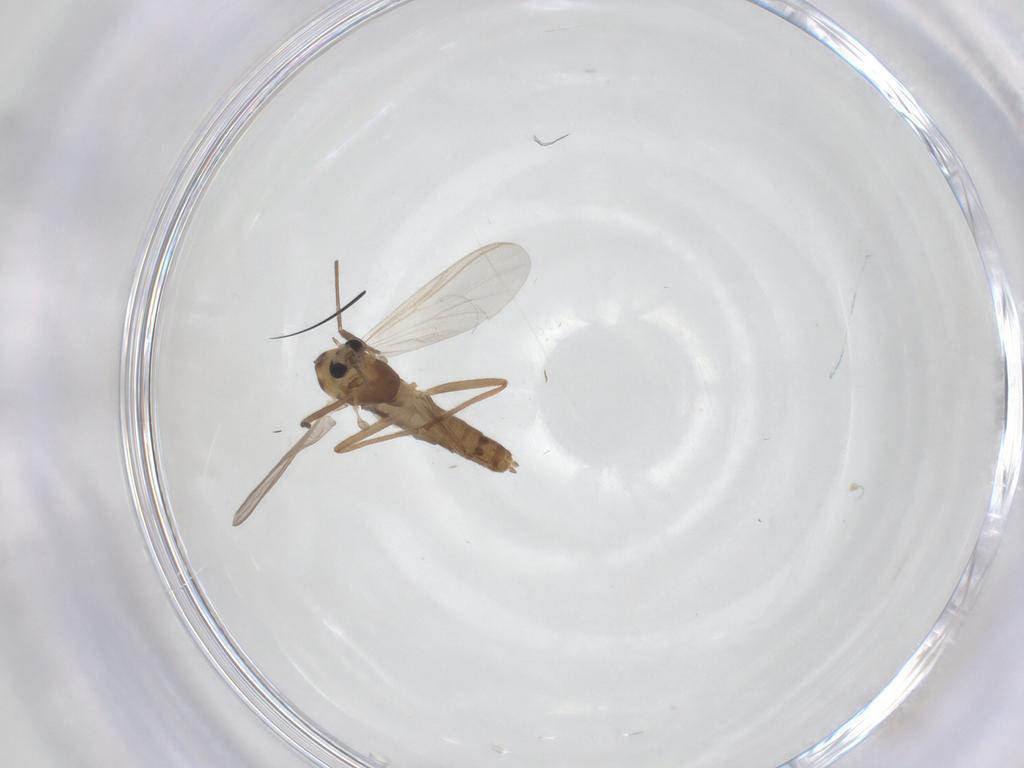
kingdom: Animalia
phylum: Arthropoda
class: Insecta
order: Diptera
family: Chironomidae
